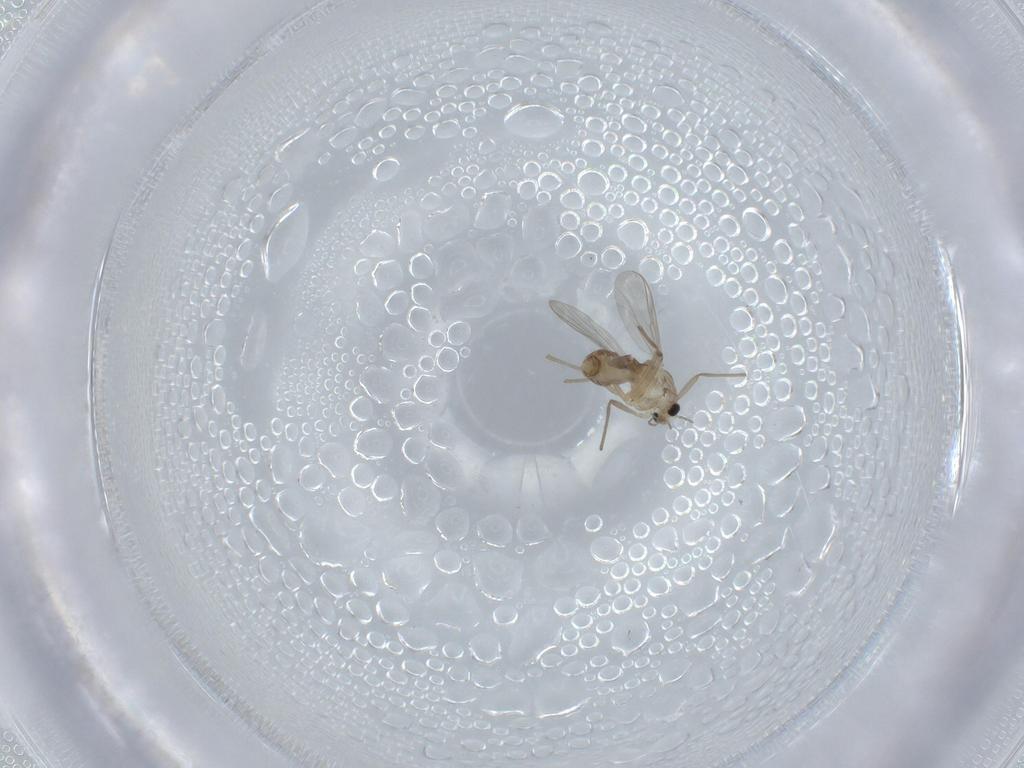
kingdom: Animalia
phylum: Arthropoda
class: Insecta
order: Diptera
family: Chironomidae
